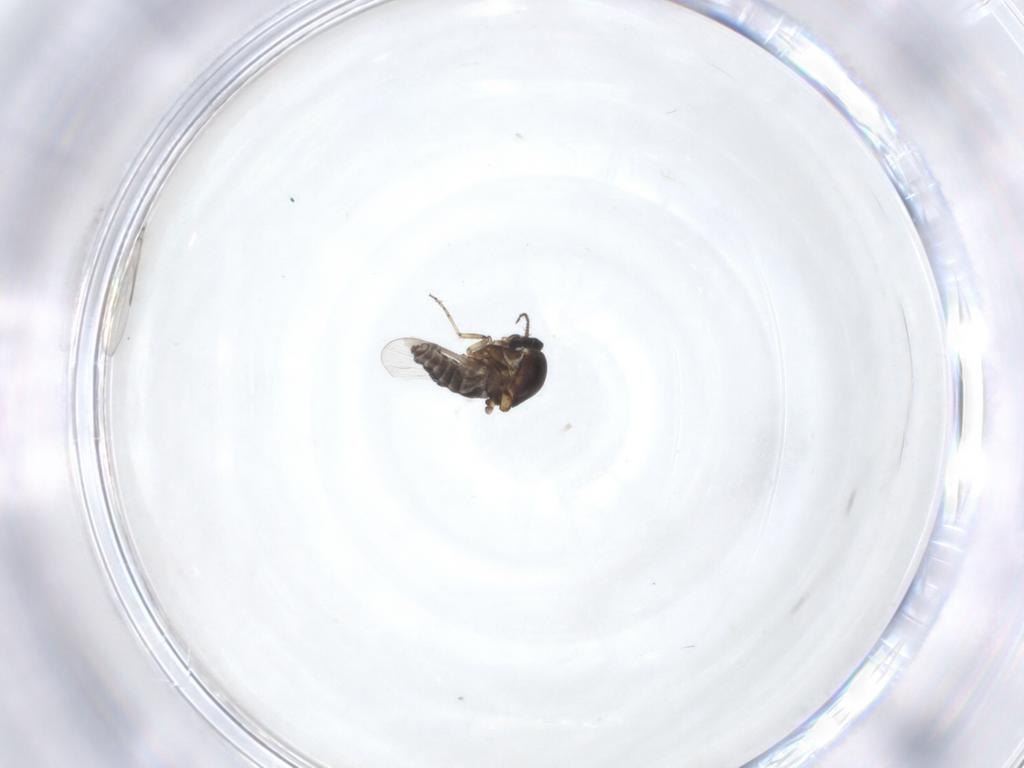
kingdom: Animalia
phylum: Arthropoda
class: Insecta
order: Diptera
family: Ceratopogonidae
